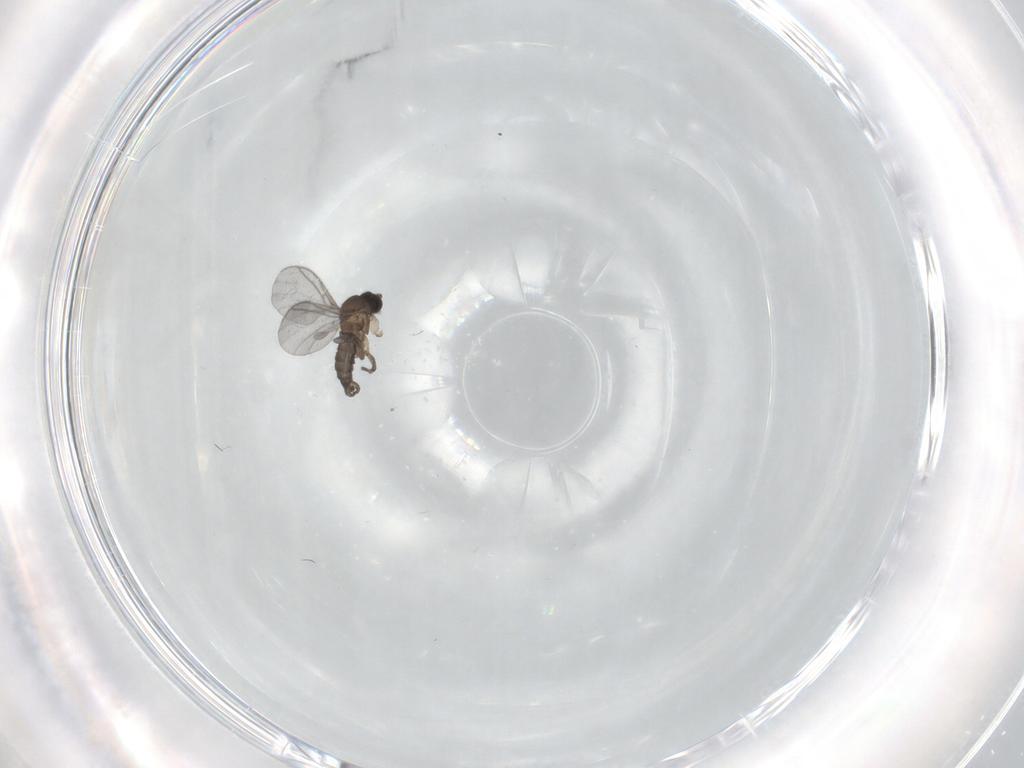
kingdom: Animalia
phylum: Arthropoda
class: Insecta
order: Diptera
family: Sciaridae
